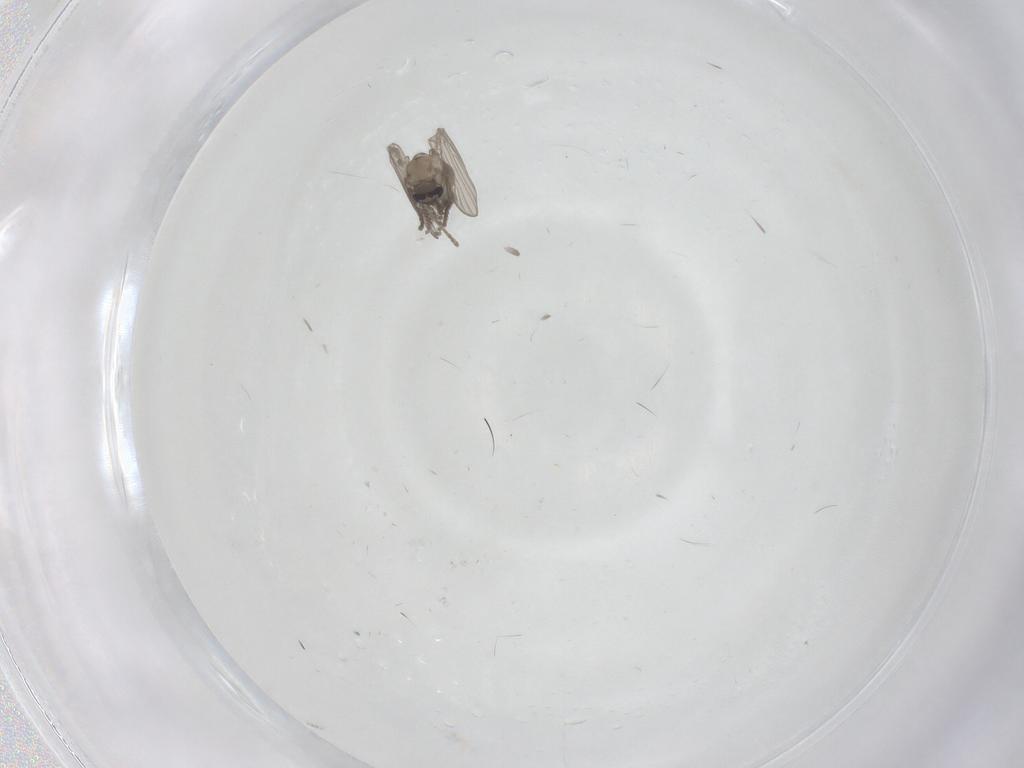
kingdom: Animalia
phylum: Arthropoda
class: Insecta
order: Diptera
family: Psychodidae
